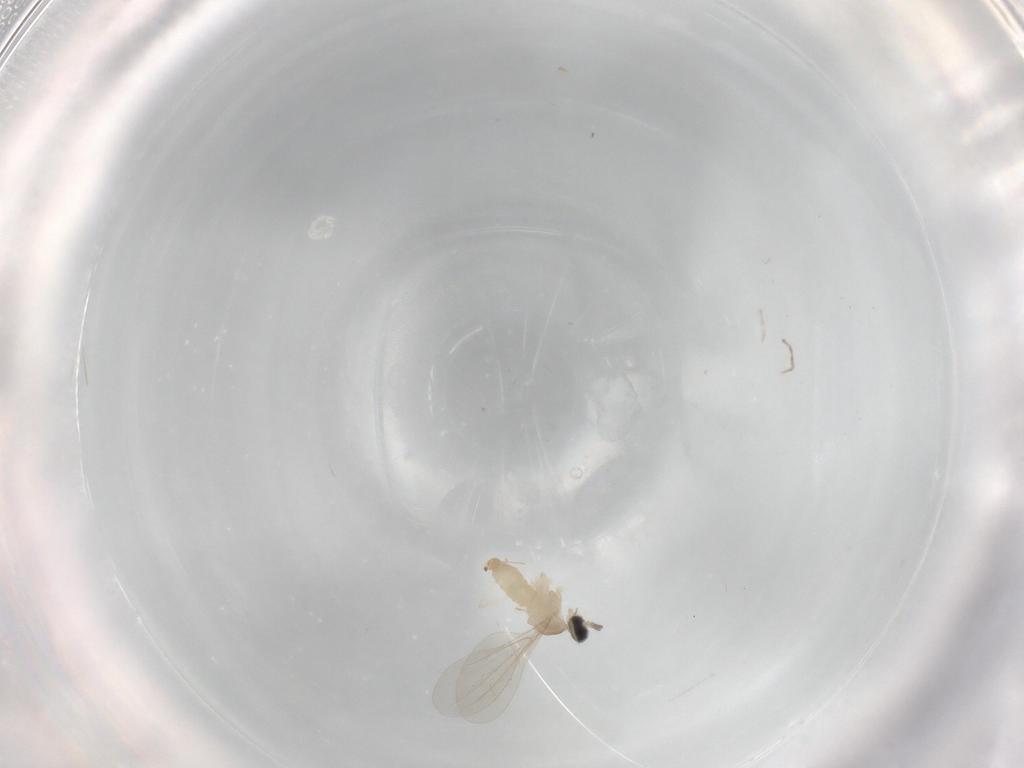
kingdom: Animalia
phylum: Arthropoda
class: Insecta
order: Diptera
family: Cecidomyiidae
